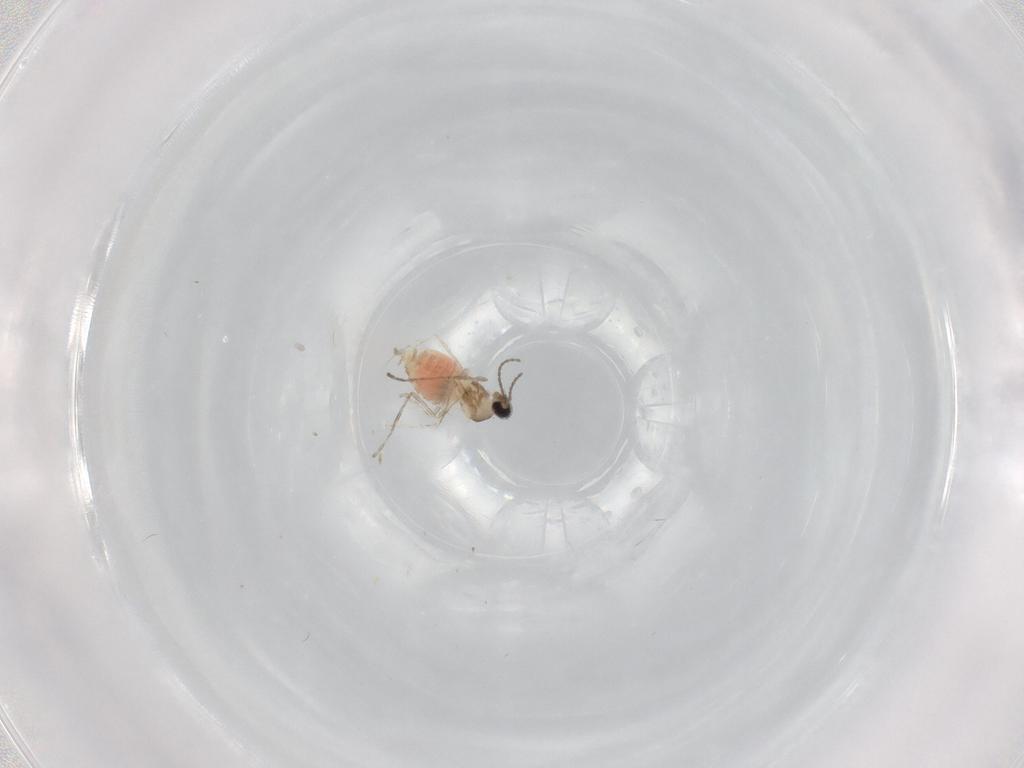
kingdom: Animalia
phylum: Arthropoda
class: Insecta
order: Diptera
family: Cecidomyiidae
